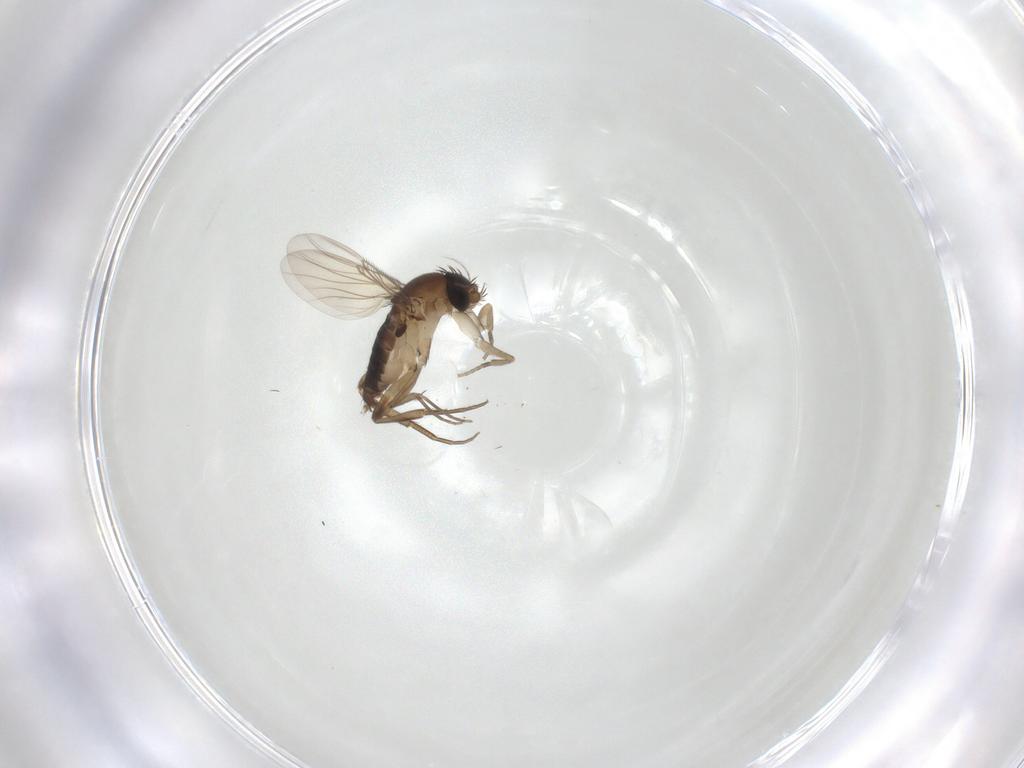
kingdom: Animalia
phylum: Arthropoda
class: Insecta
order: Diptera
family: Phoridae
